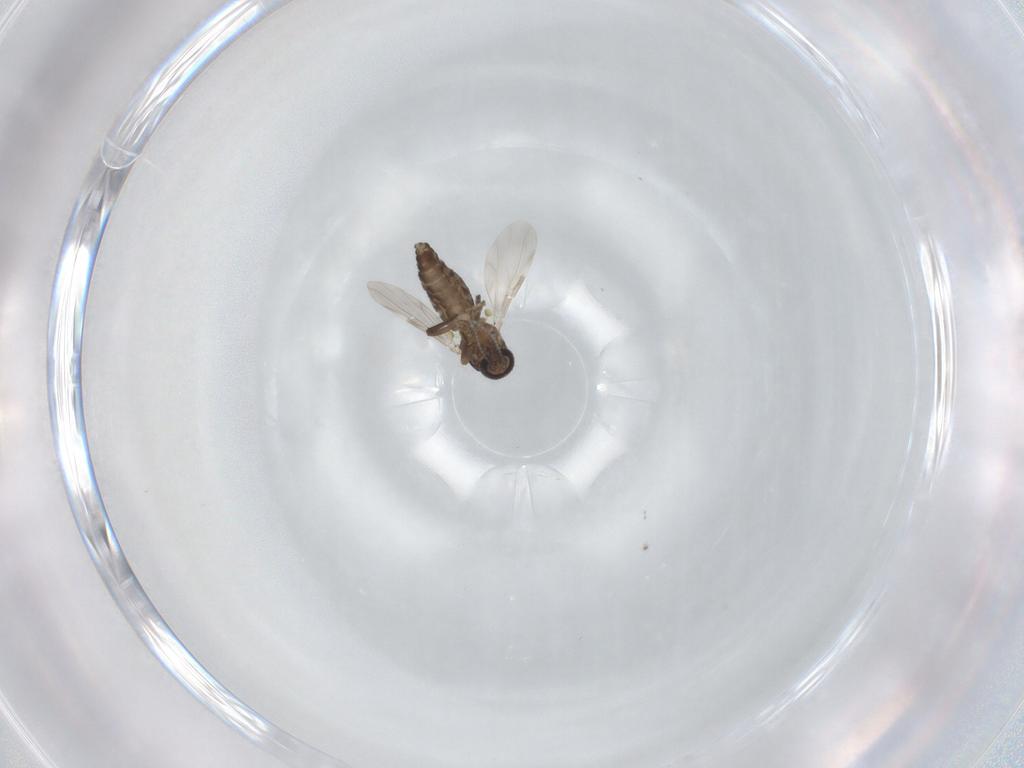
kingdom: Animalia
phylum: Arthropoda
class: Insecta
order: Diptera
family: Ceratopogonidae
